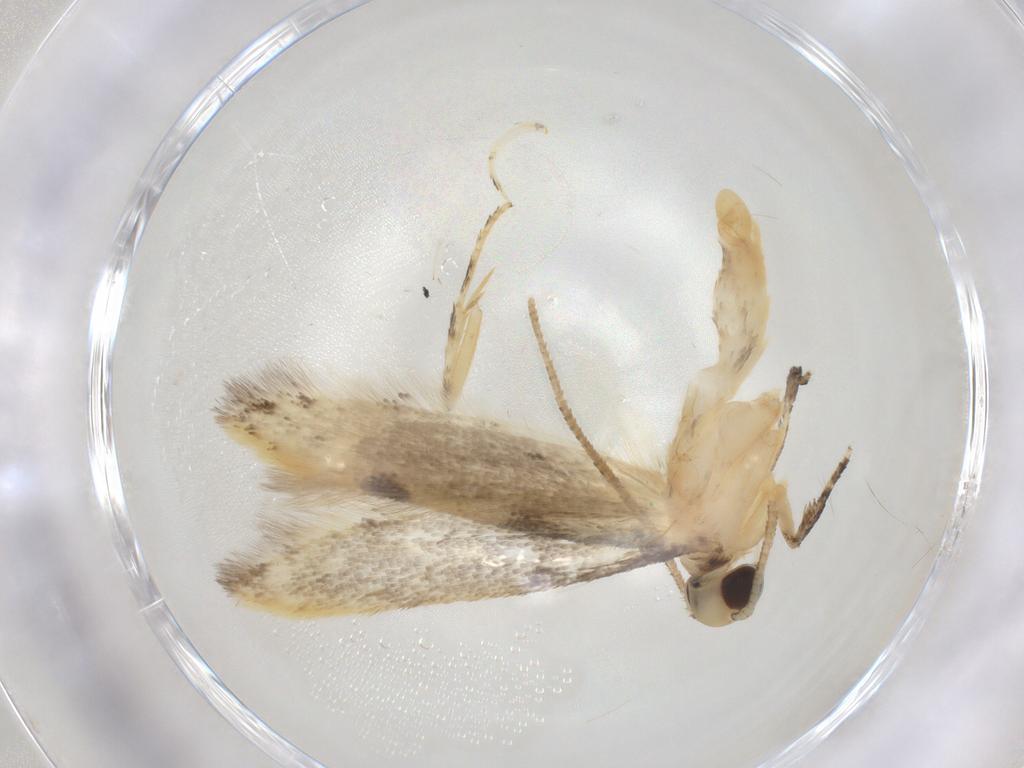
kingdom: Animalia
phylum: Arthropoda
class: Insecta
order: Lepidoptera
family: Autostichidae
